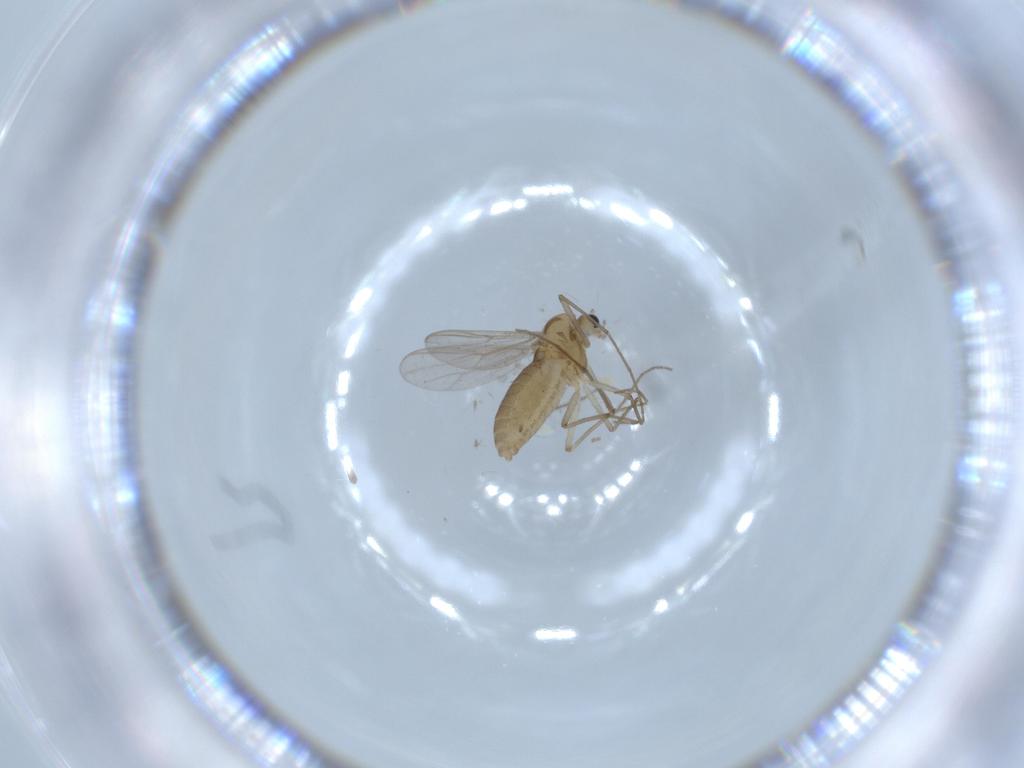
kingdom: Animalia
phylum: Arthropoda
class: Insecta
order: Diptera
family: Chironomidae
